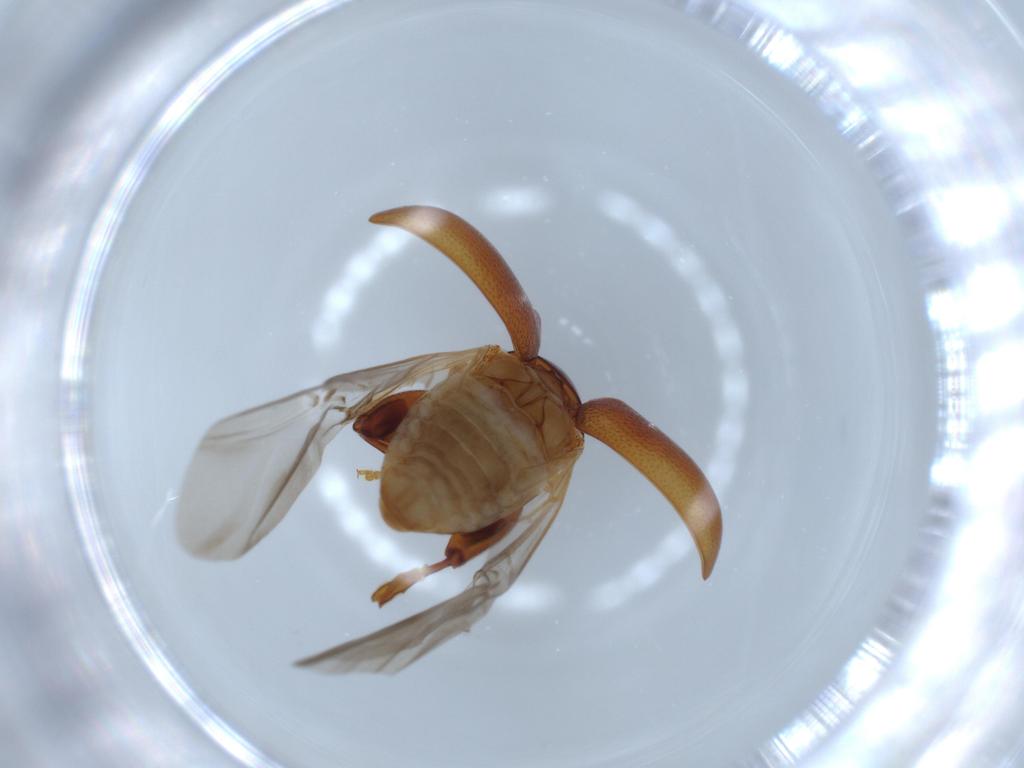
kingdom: Animalia
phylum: Arthropoda
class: Insecta
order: Coleoptera
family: Chrysomelidae
